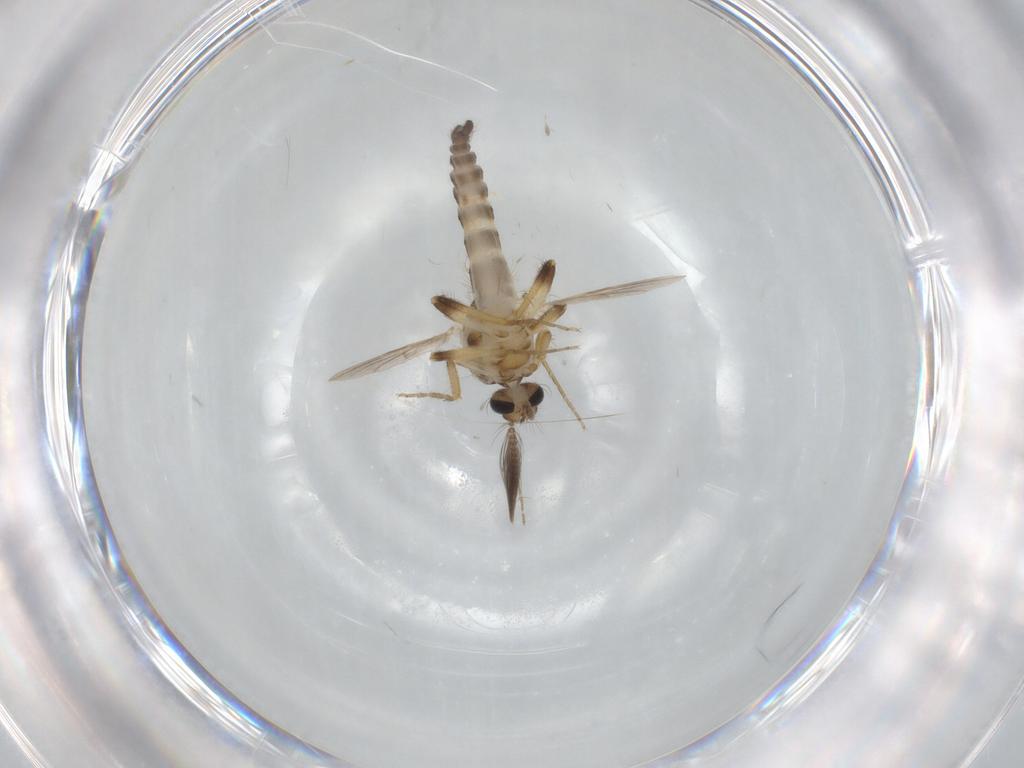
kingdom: Animalia
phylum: Arthropoda
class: Insecta
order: Diptera
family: Ceratopogonidae
